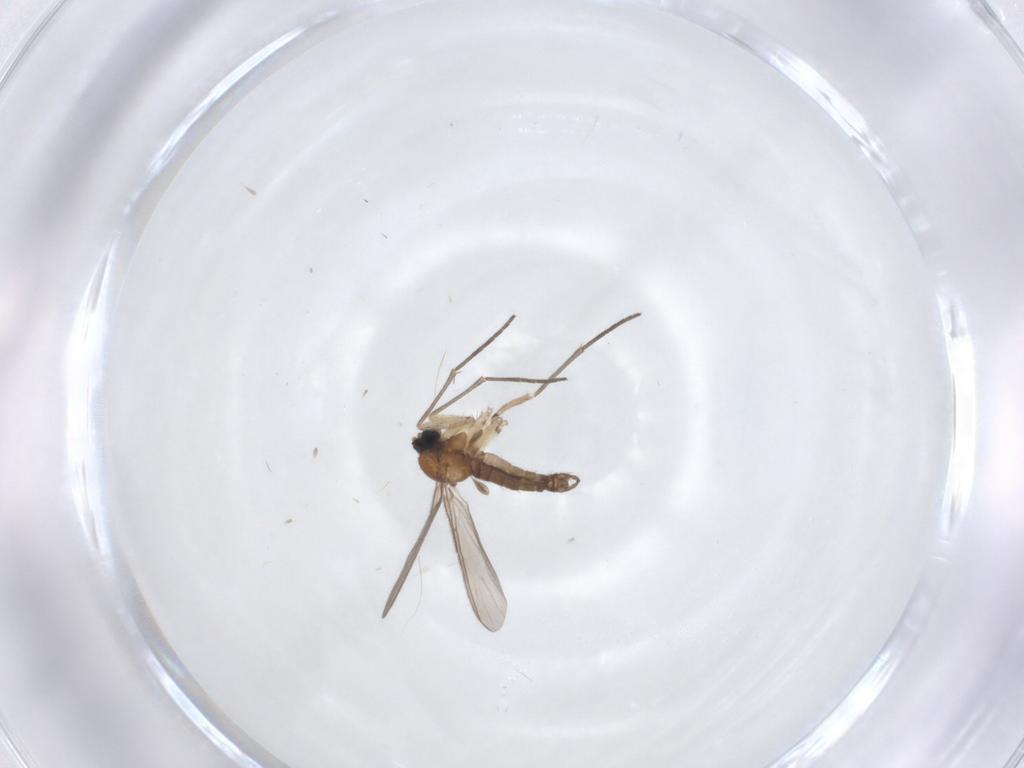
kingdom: Animalia
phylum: Arthropoda
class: Insecta
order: Diptera
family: Sciaridae
